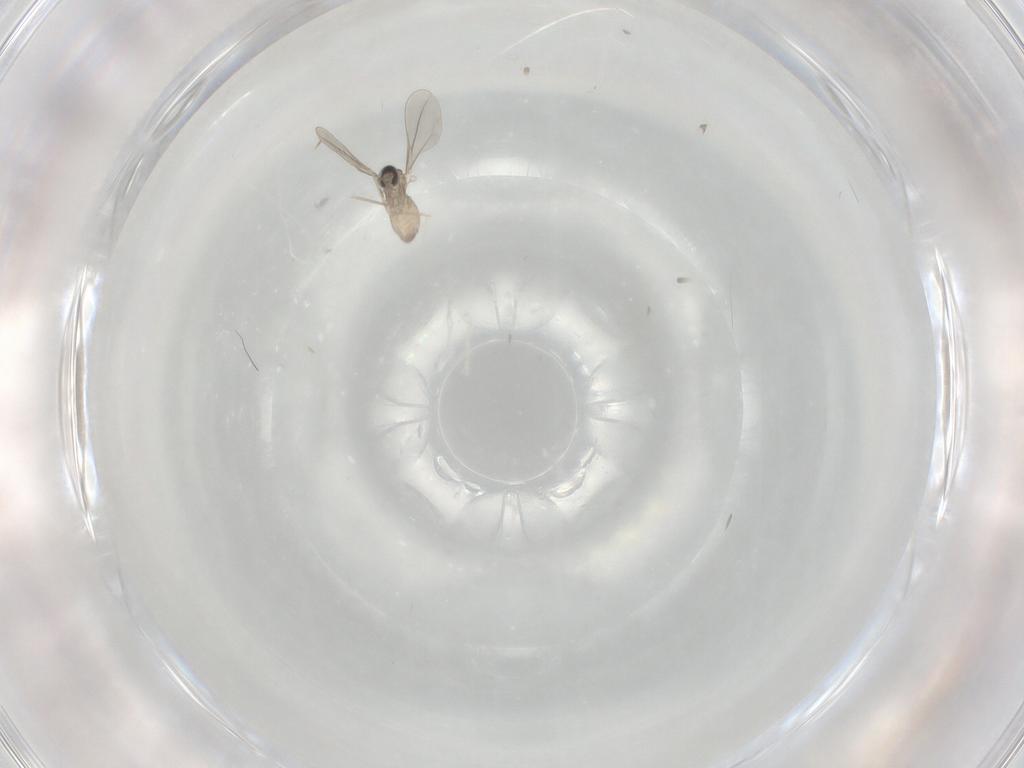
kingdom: Animalia
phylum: Arthropoda
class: Insecta
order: Diptera
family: Cecidomyiidae
